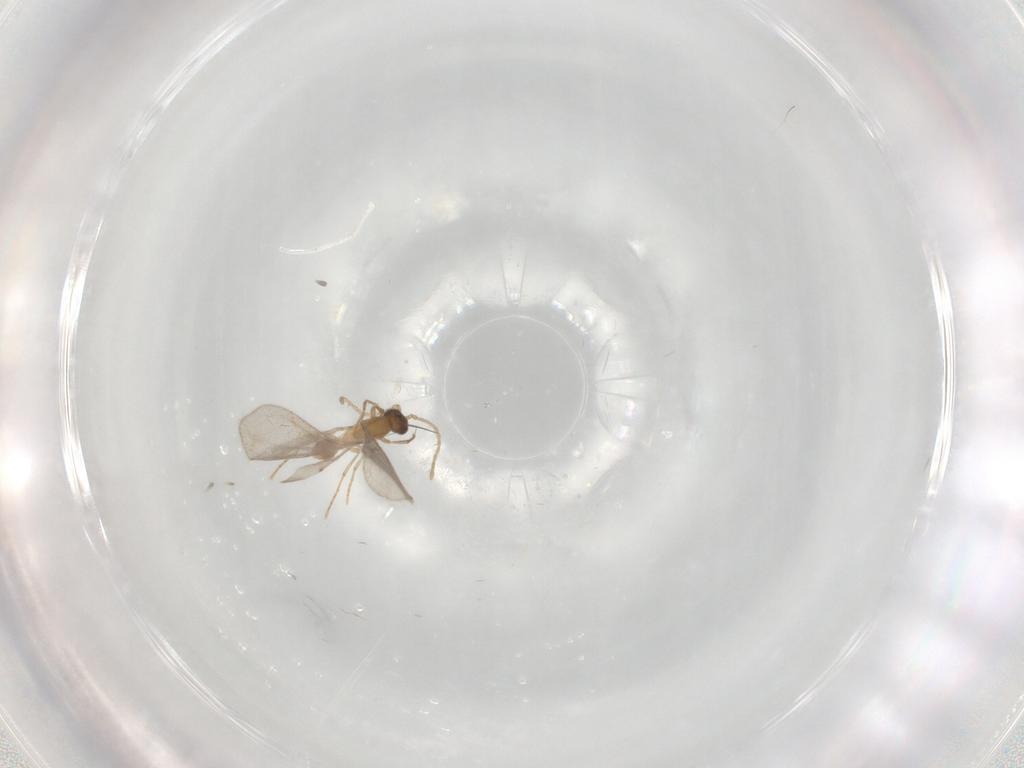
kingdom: Animalia
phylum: Arthropoda
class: Insecta
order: Hymenoptera
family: Formicidae
